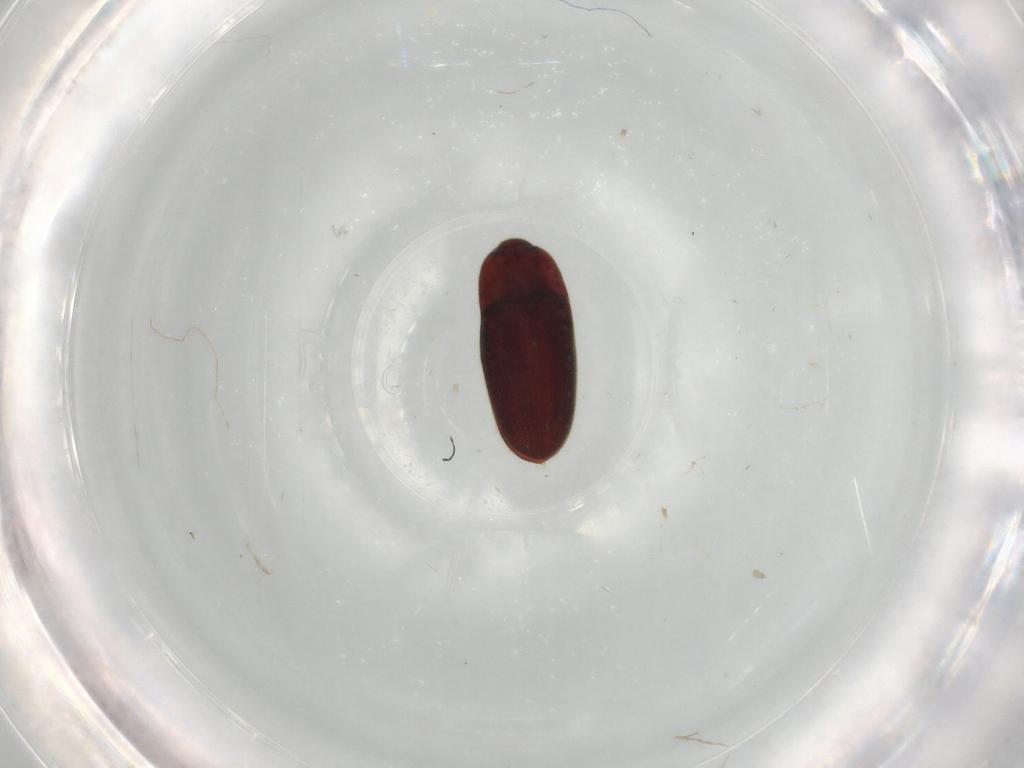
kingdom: Animalia
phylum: Arthropoda
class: Insecta
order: Coleoptera
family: Throscidae
